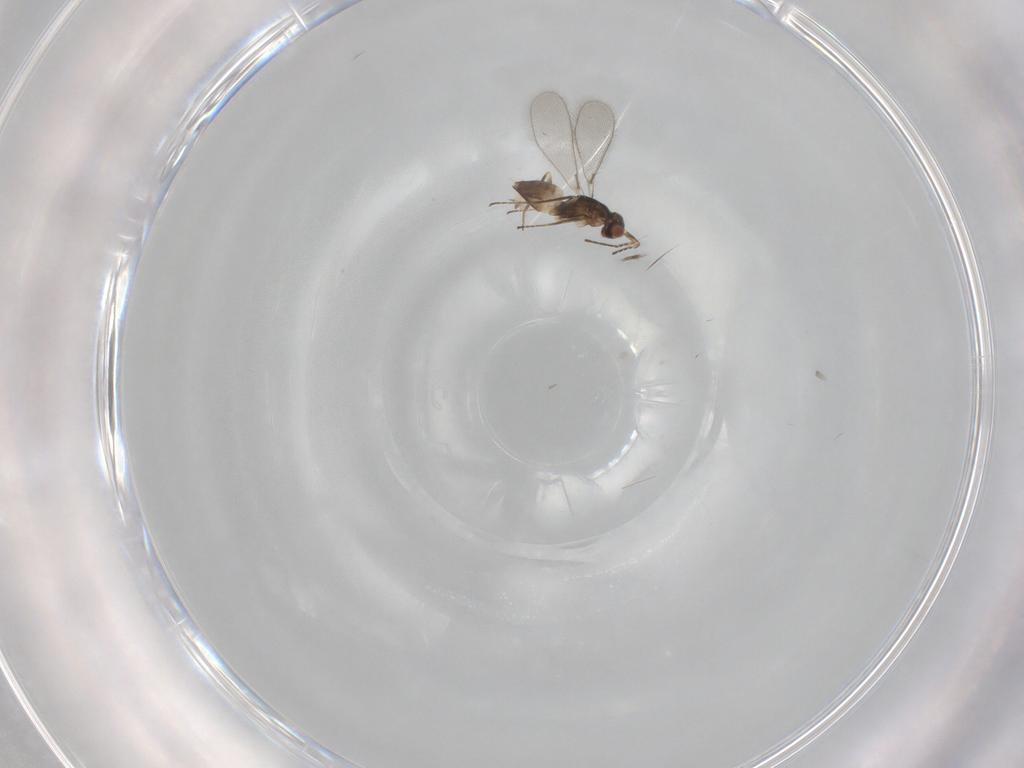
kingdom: Animalia
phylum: Arthropoda
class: Insecta
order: Hymenoptera
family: Mymaridae
